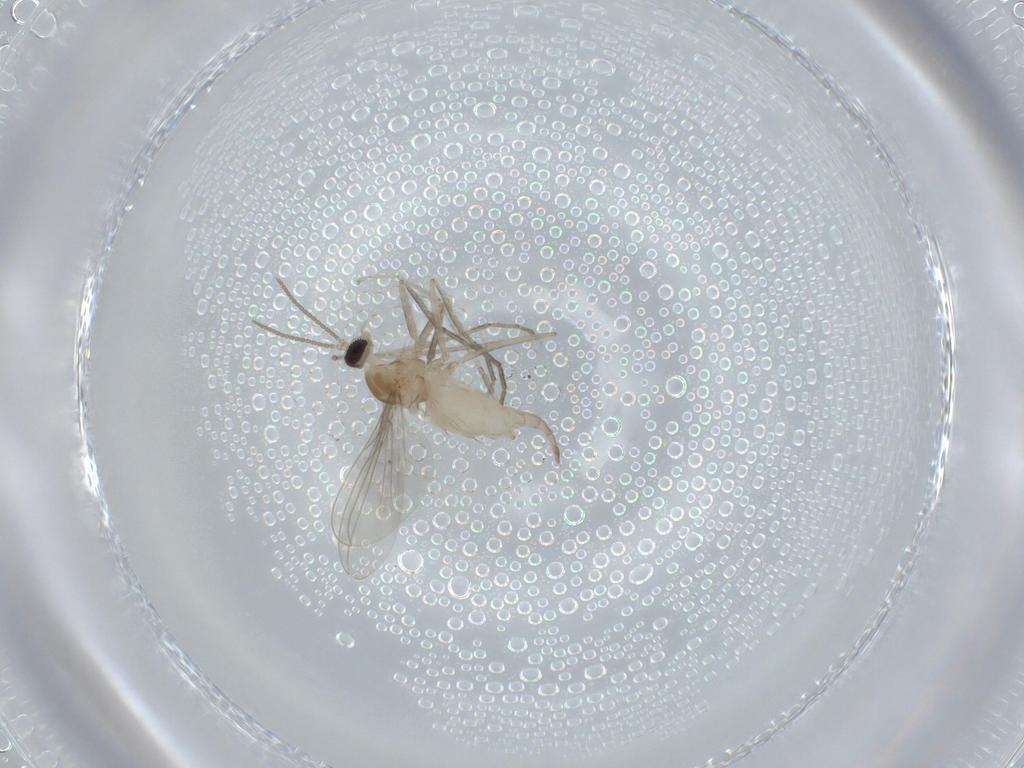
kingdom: Animalia
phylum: Arthropoda
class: Insecta
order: Diptera
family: Cecidomyiidae
